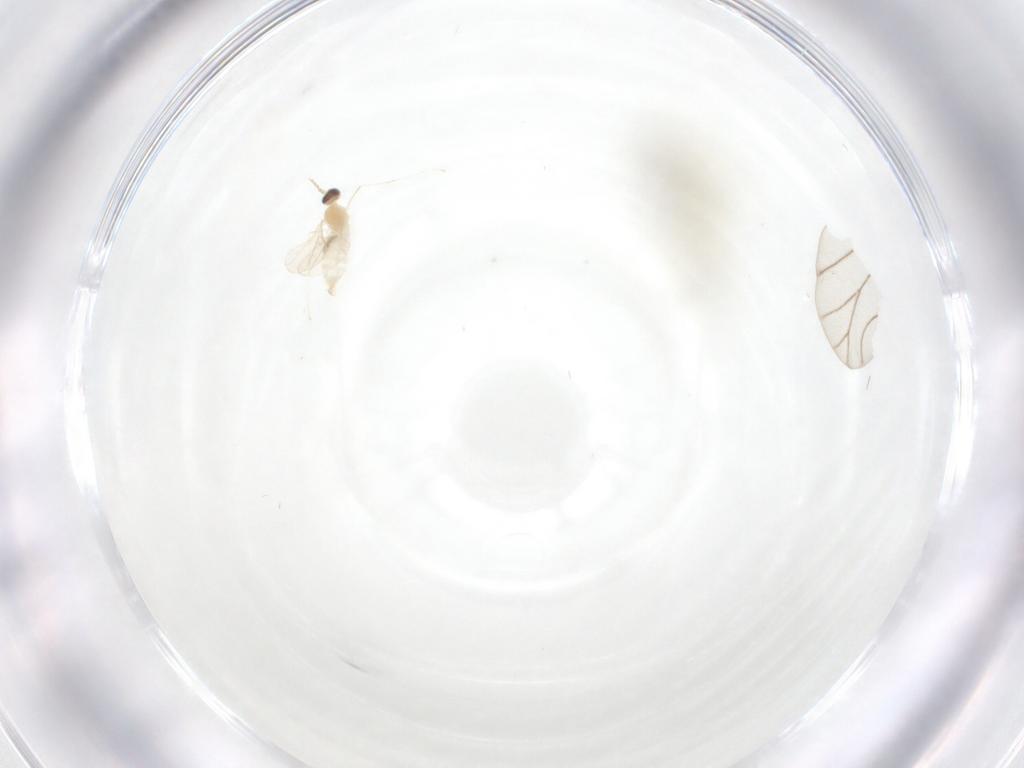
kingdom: Animalia
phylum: Arthropoda
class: Insecta
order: Diptera
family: Cecidomyiidae
